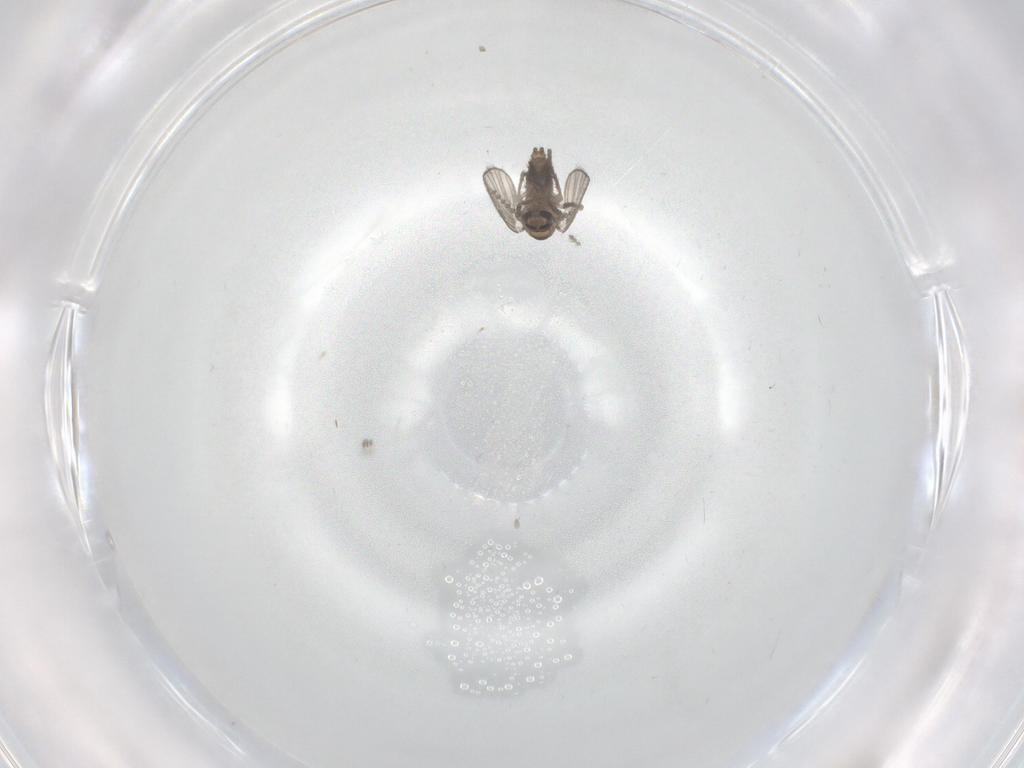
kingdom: Animalia
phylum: Arthropoda
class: Insecta
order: Diptera
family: Psychodidae
